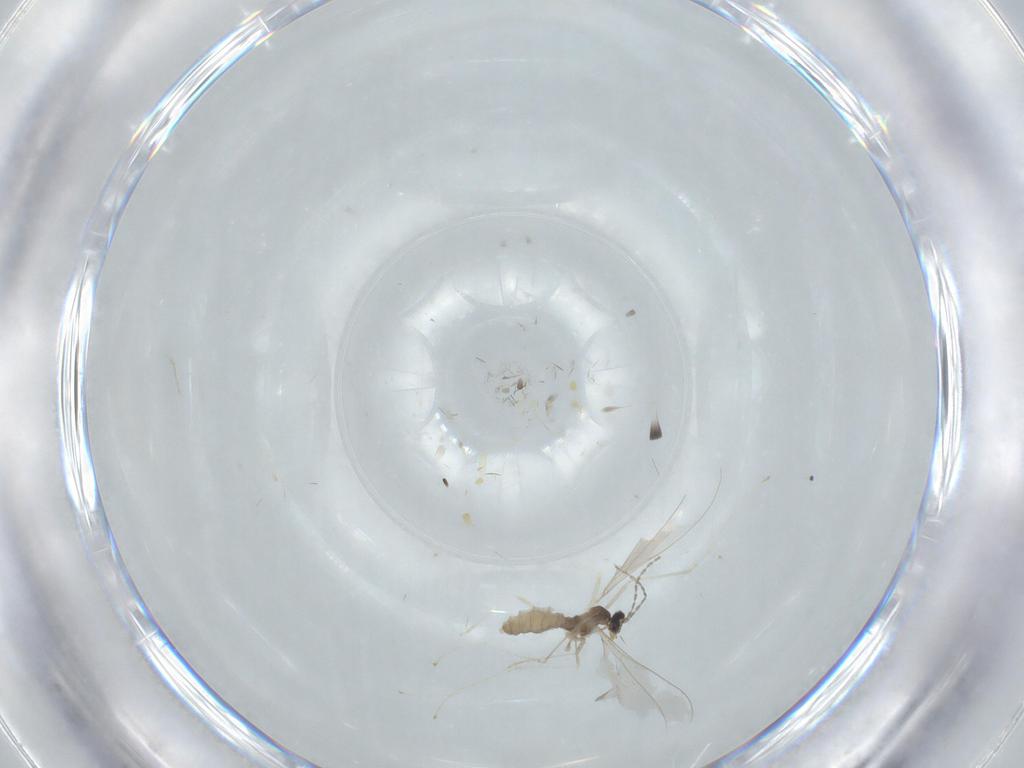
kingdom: Animalia
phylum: Arthropoda
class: Insecta
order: Diptera
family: Cecidomyiidae
